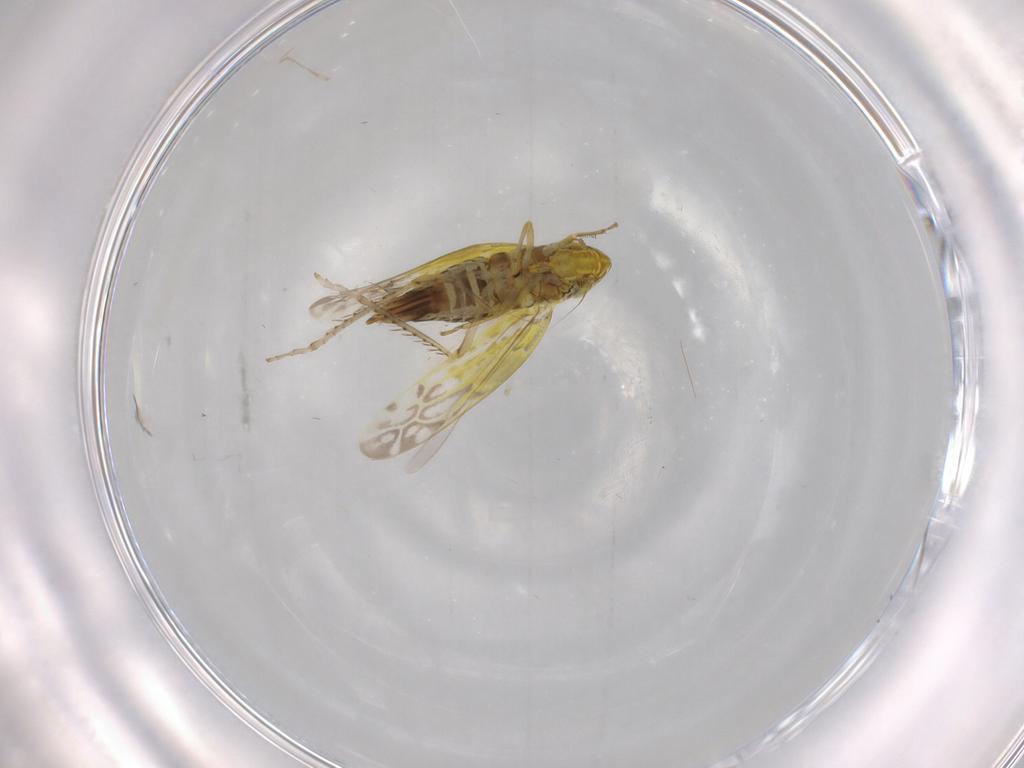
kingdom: Animalia
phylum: Arthropoda
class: Insecta
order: Hemiptera
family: Cicadellidae
